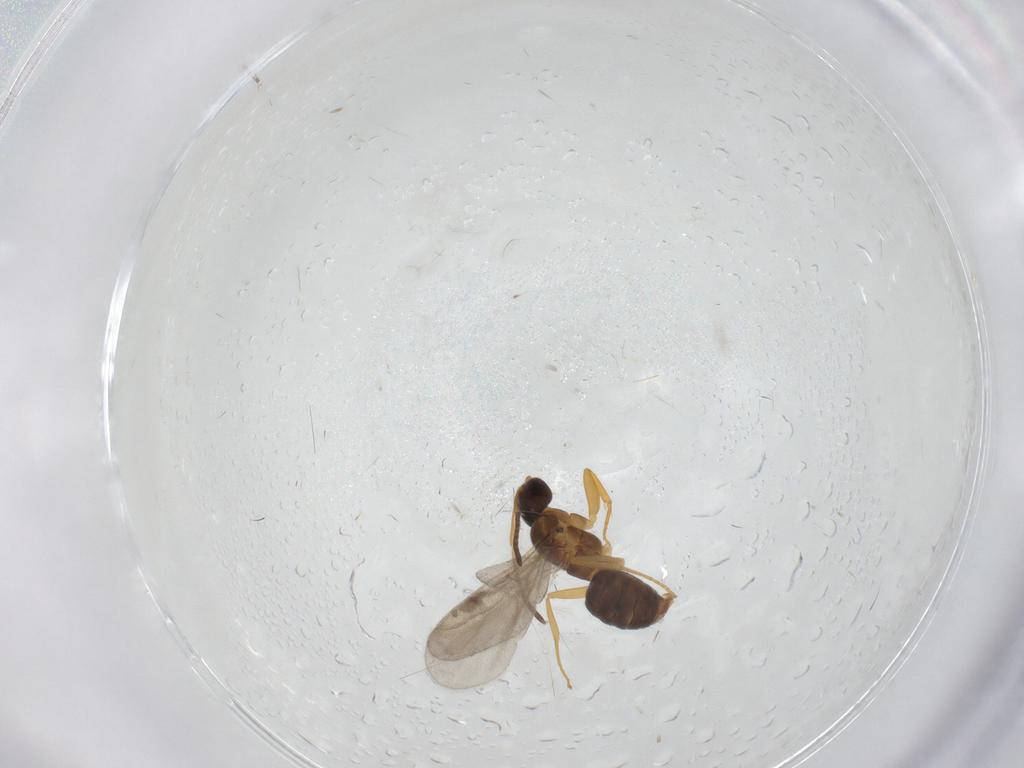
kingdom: Animalia
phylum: Arthropoda
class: Insecta
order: Hymenoptera
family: Formicidae
